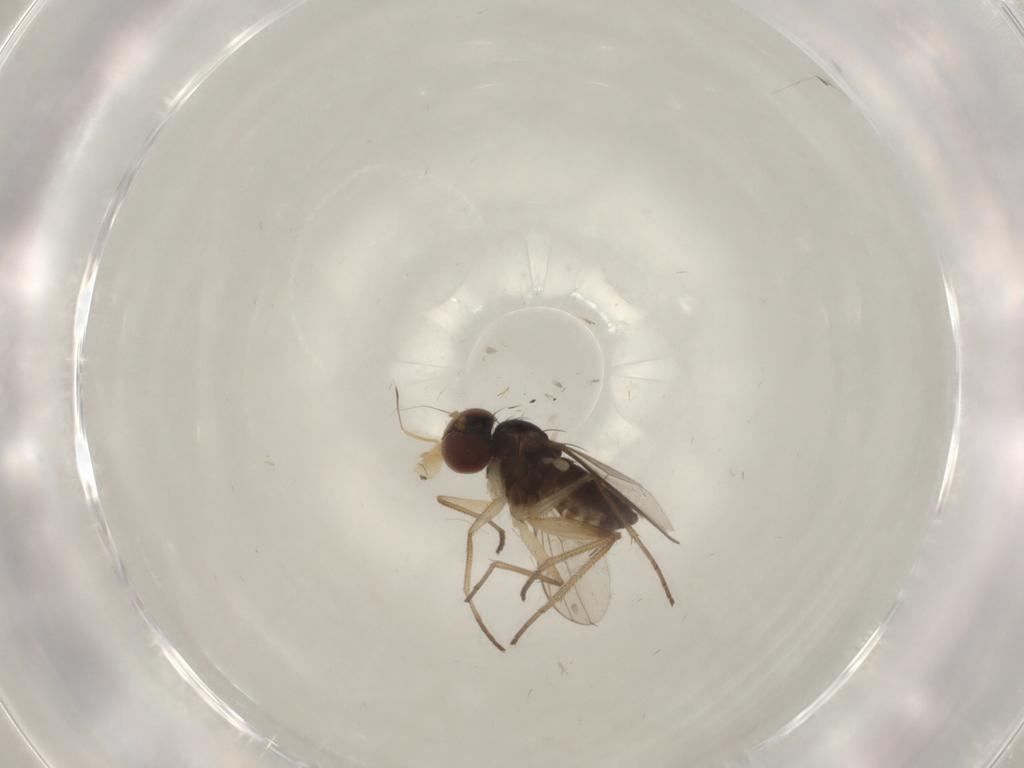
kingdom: Animalia
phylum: Arthropoda
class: Insecta
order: Diptera
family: Dolichopodidae
